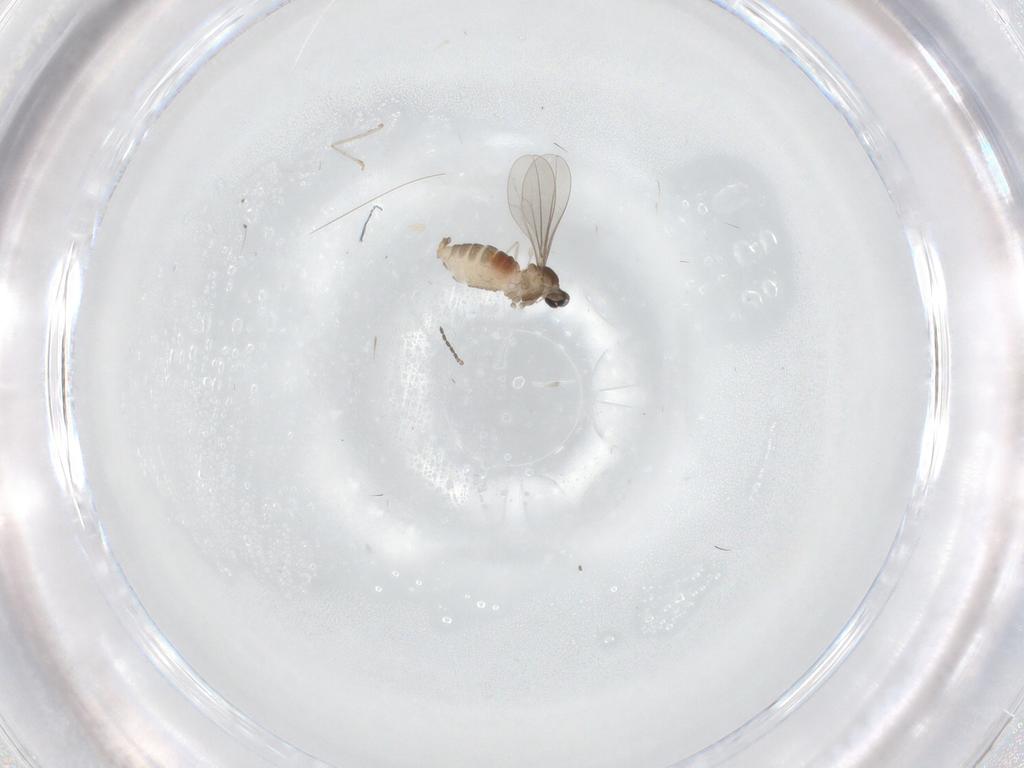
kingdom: Animalia
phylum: Arthropoda
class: Insecta
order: Diptera
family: Cecidomyiidae
